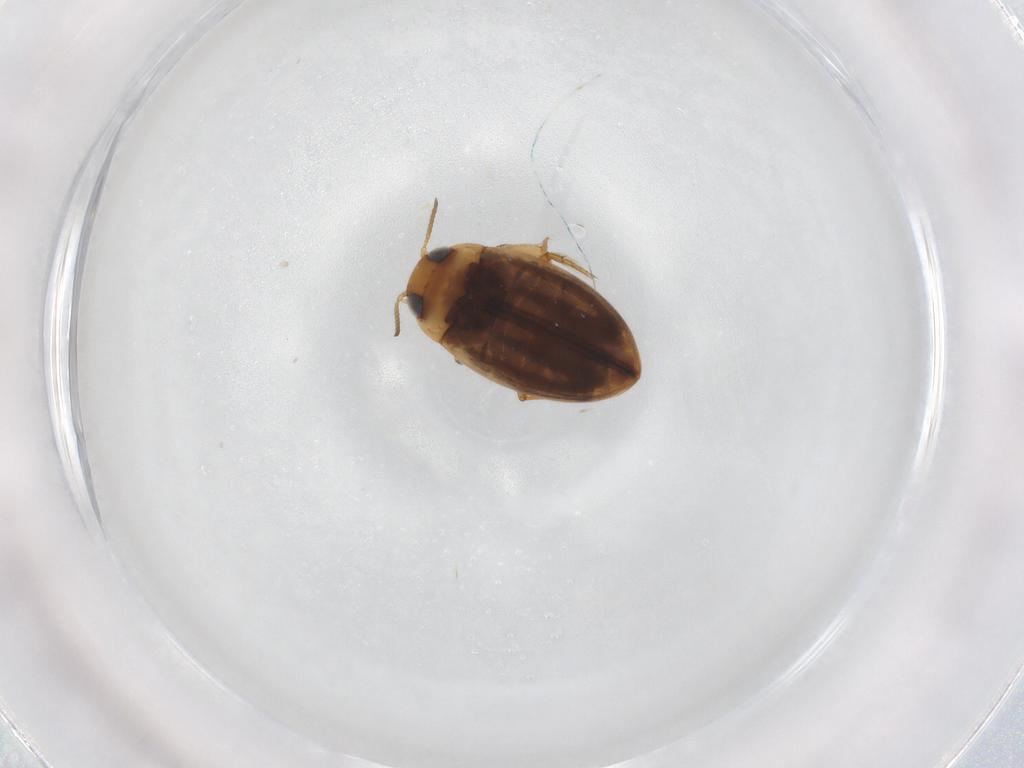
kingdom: Animalia
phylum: Arthropoda
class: Insecta
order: Coleoptera
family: Dytiscidae
